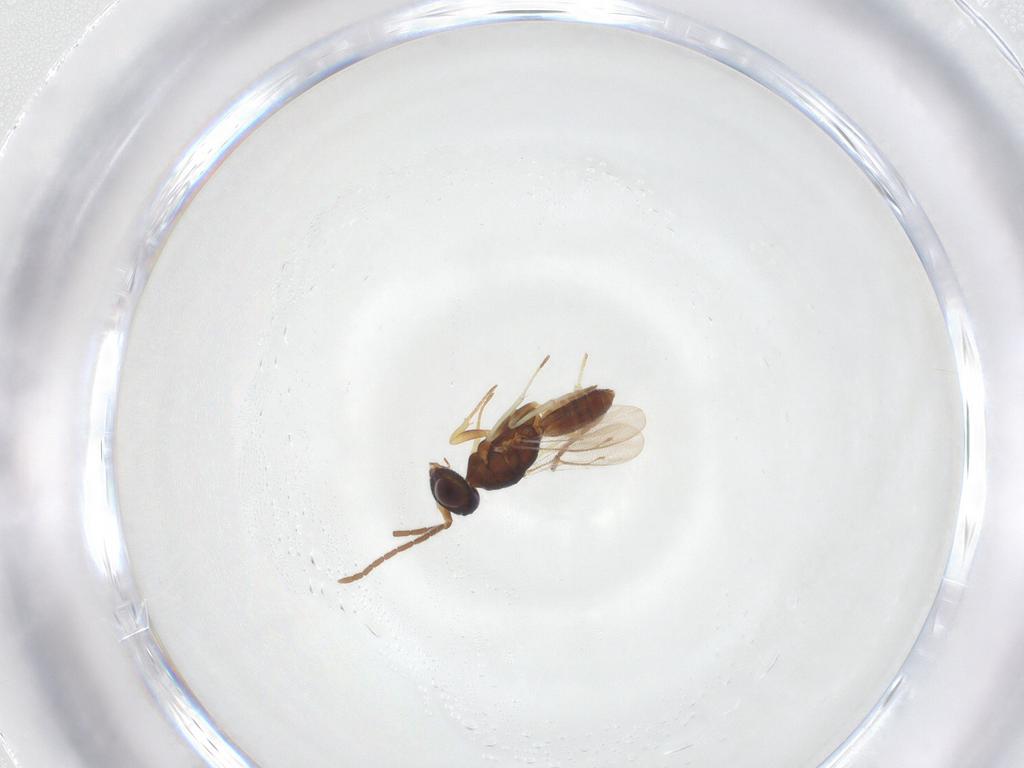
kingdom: Animalia
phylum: Arthropoda
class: Insecta
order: Hymenoptera
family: Eupelmidae
